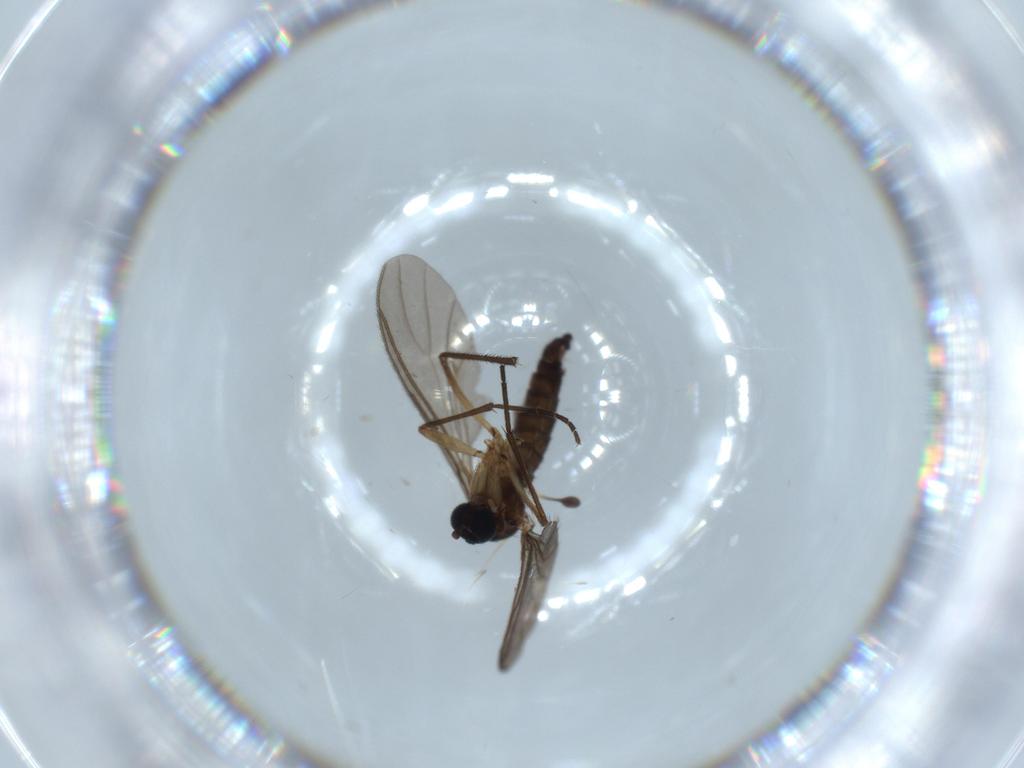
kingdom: Animalia
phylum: Arthropoda
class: Insecta
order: Diptera
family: Sciaridae
